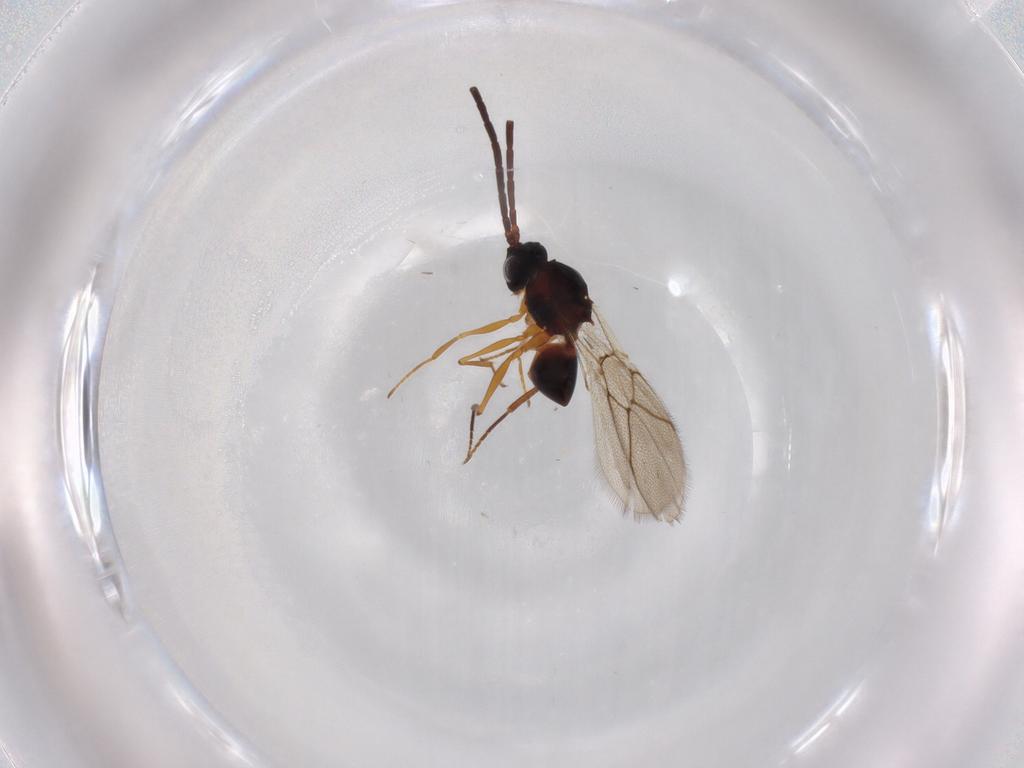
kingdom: Animalia
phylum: Arthropoda
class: Insecta
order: Hymenoptera
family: Figitidae
